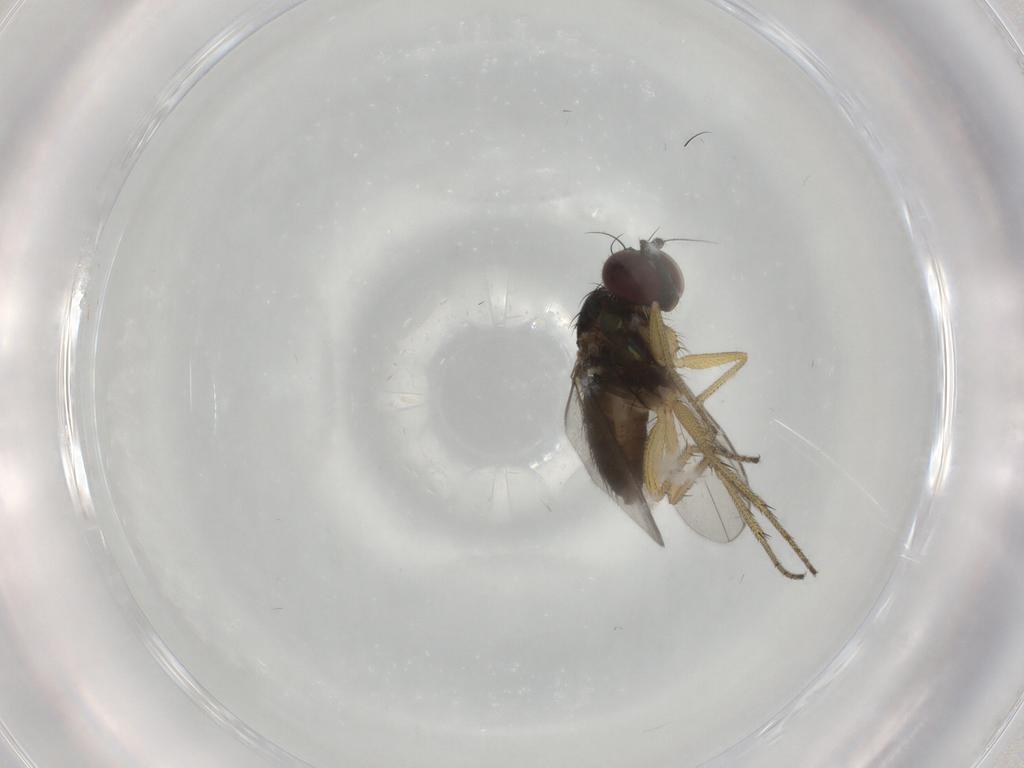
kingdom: Animalia
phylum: Arthropoda
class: Insecta
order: Diptera
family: Dolichopodidae
